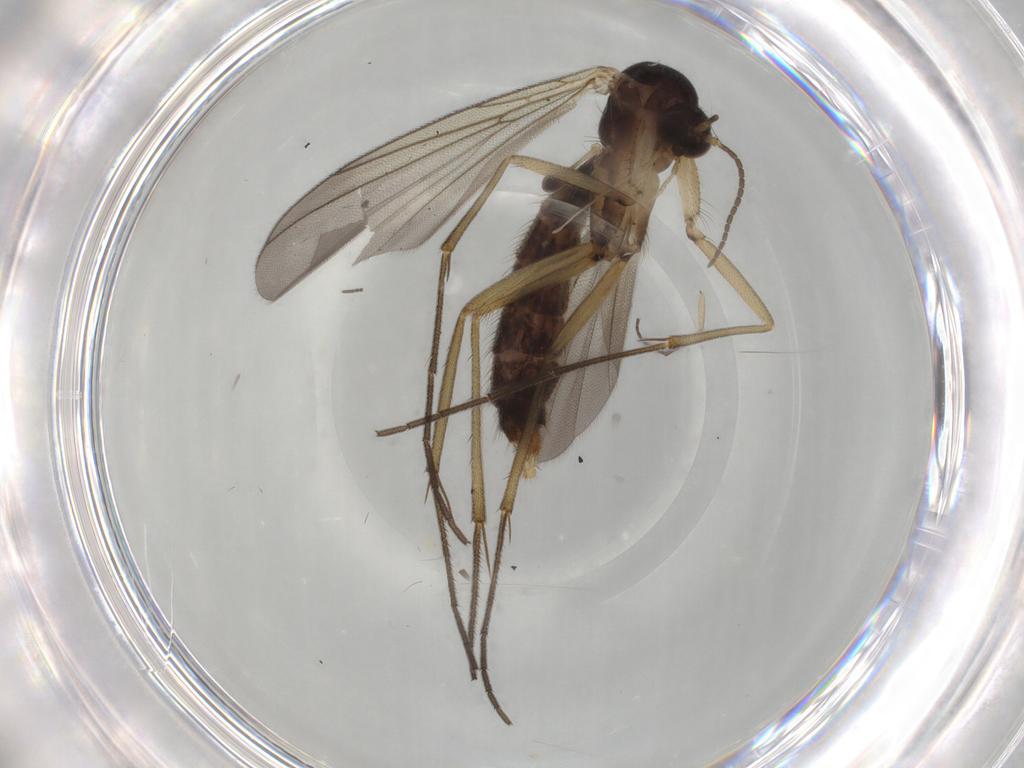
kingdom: Animalia
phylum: Arthropoda
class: Insecta
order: Diptera
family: Mycetophilidae
